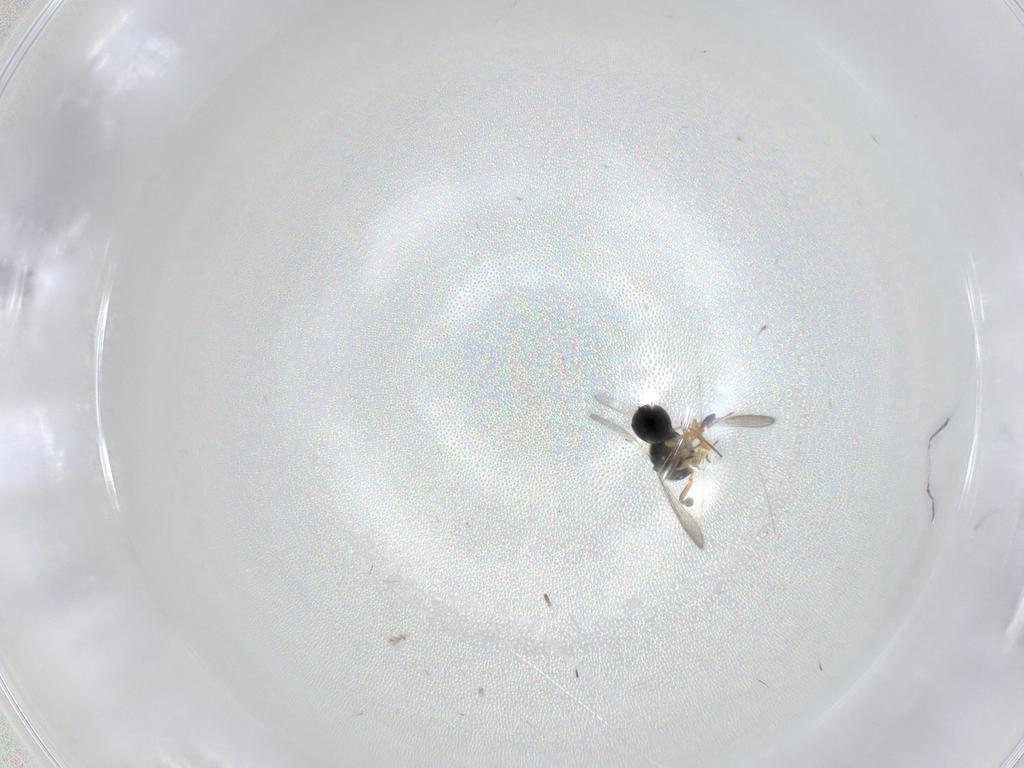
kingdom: Animalia
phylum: Arthropoda
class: Insecta
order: Hymenoptera
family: Scelionidae
